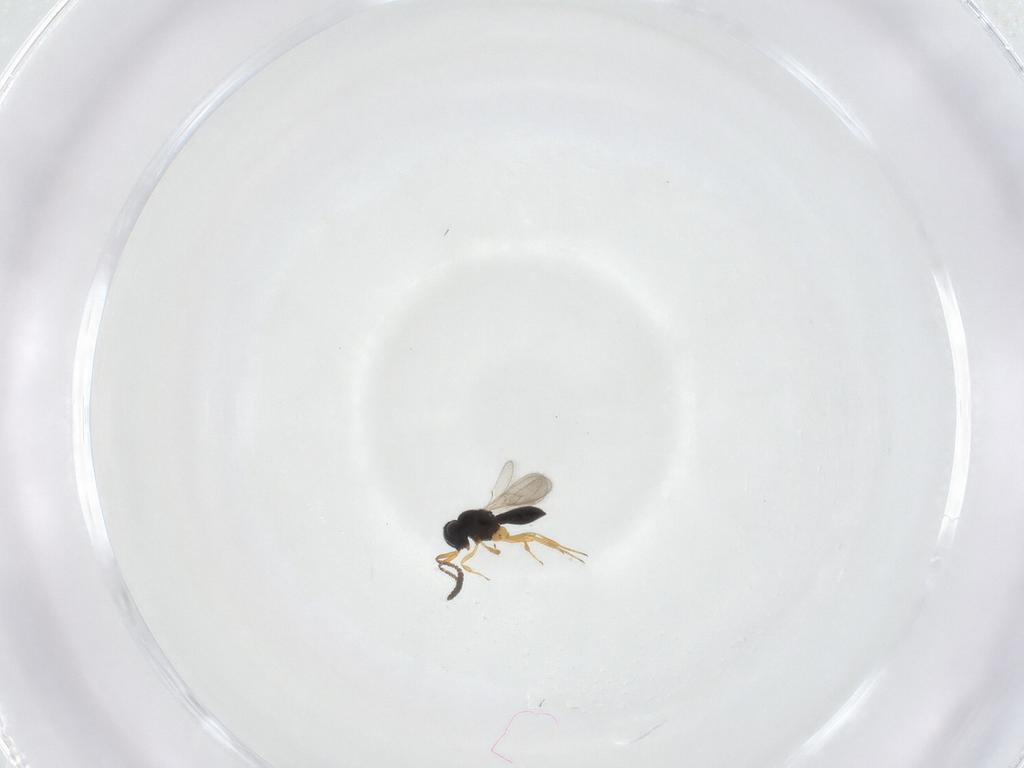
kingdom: Animalia
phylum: Arthropoda
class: Insecta
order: Hymenoptera
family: Scelionidae
